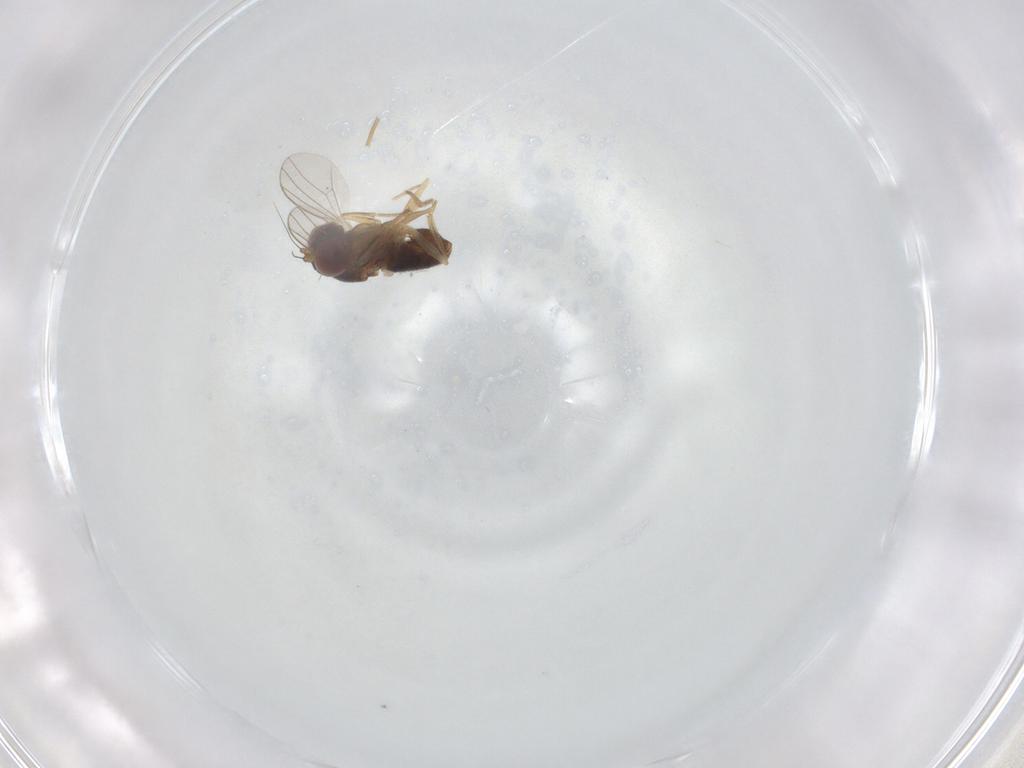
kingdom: Animalia
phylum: Arthropoda
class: Insecta
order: Diptera
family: Dolichopodidae
